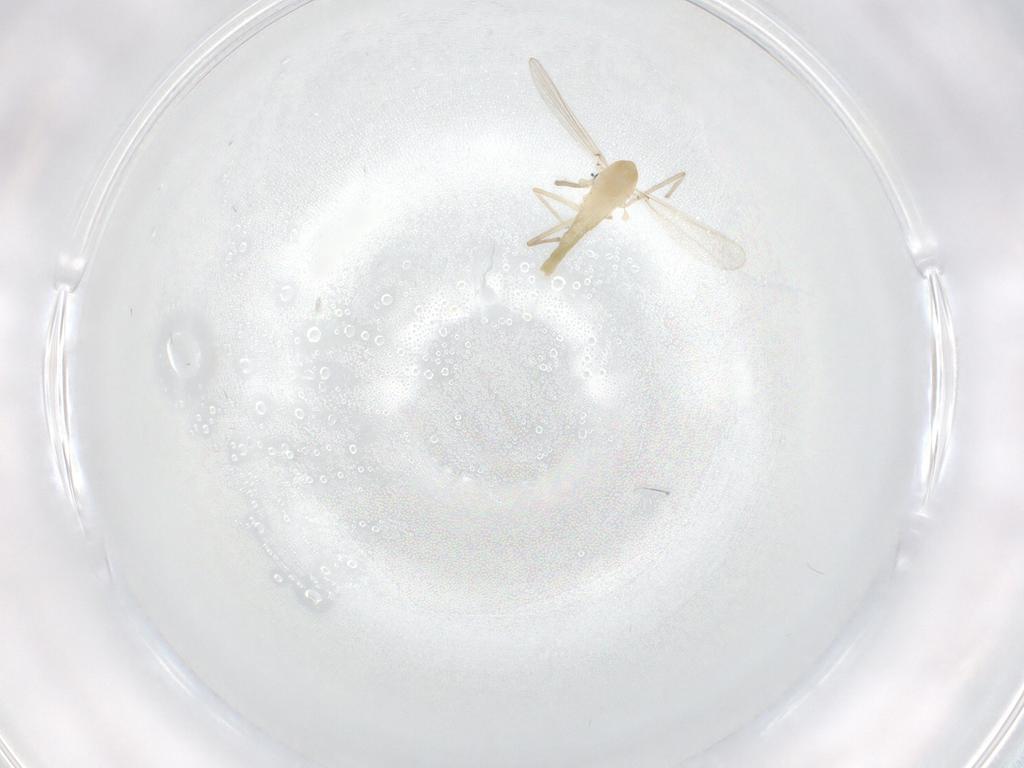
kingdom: Animalia
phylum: Arthropoda
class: Insecta
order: Diptera
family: Chironomidae
